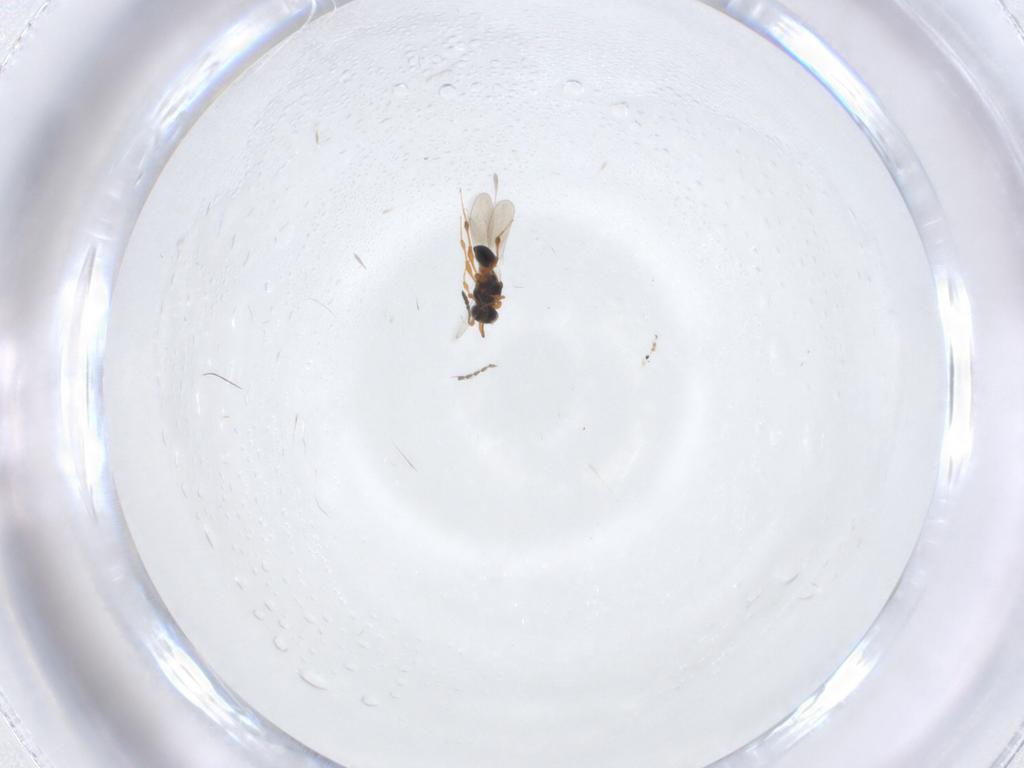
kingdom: Animalia
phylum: Arthropoda
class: Insecta
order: Hymenoptera
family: Platygastridae
